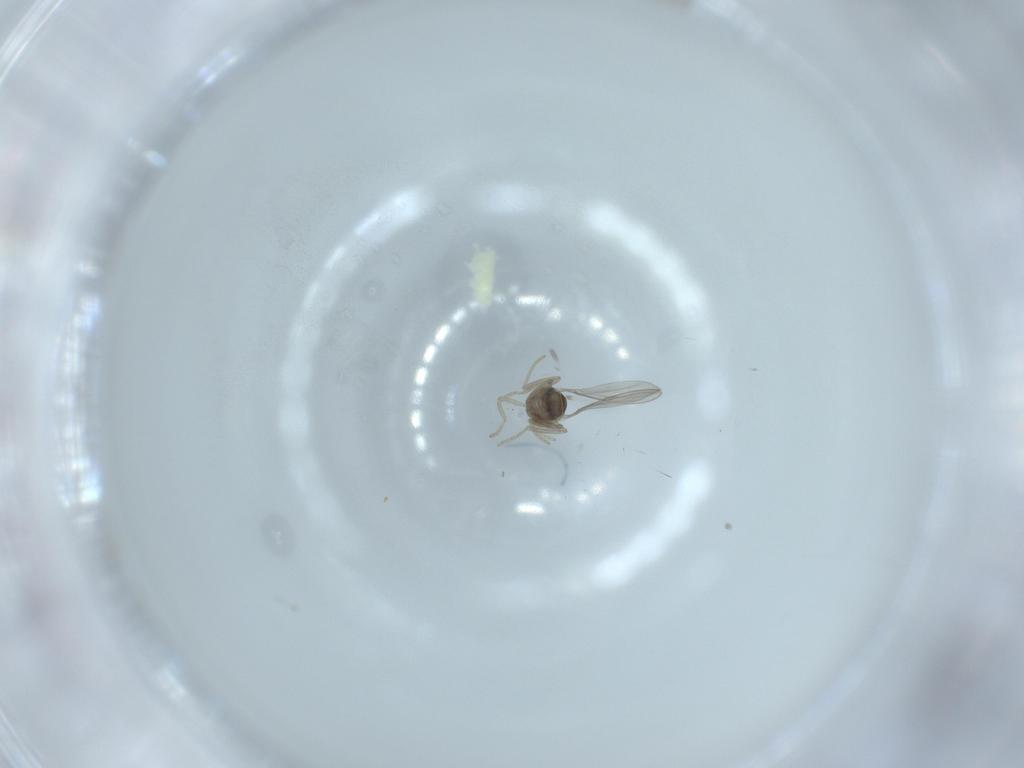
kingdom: Animalia
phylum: Arthropoda
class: Insecta
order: Diptera
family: Cecidomyiidae
